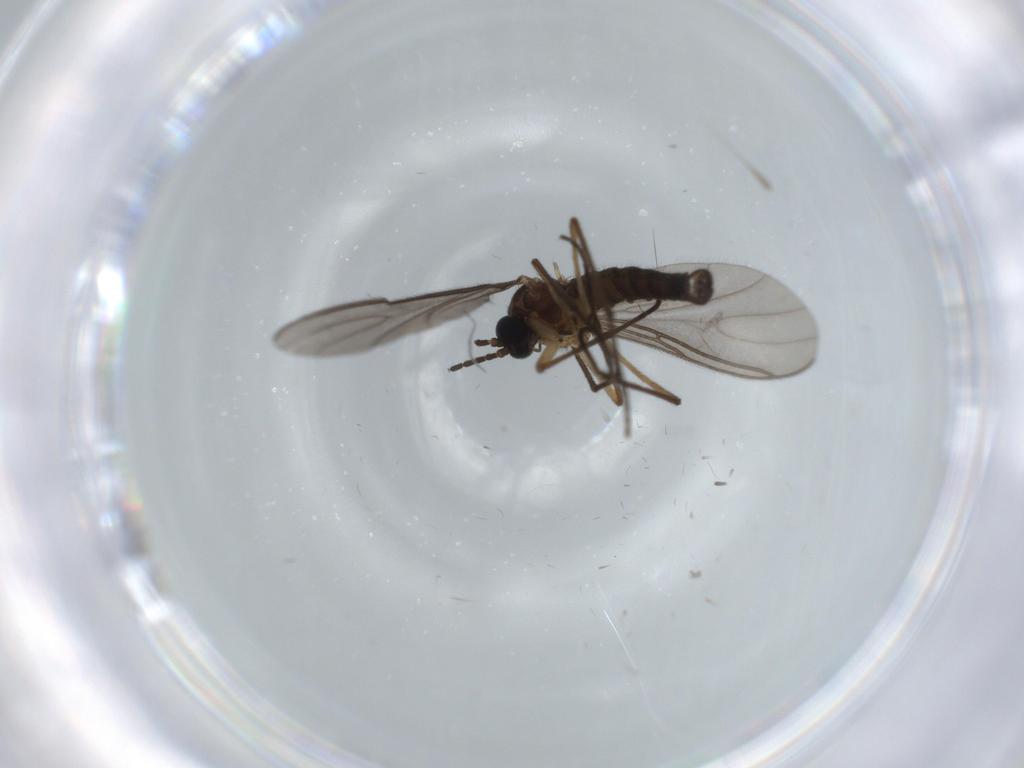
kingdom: Animalia
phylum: Arthropoda
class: Insecta
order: Diptera
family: Sciaridae
